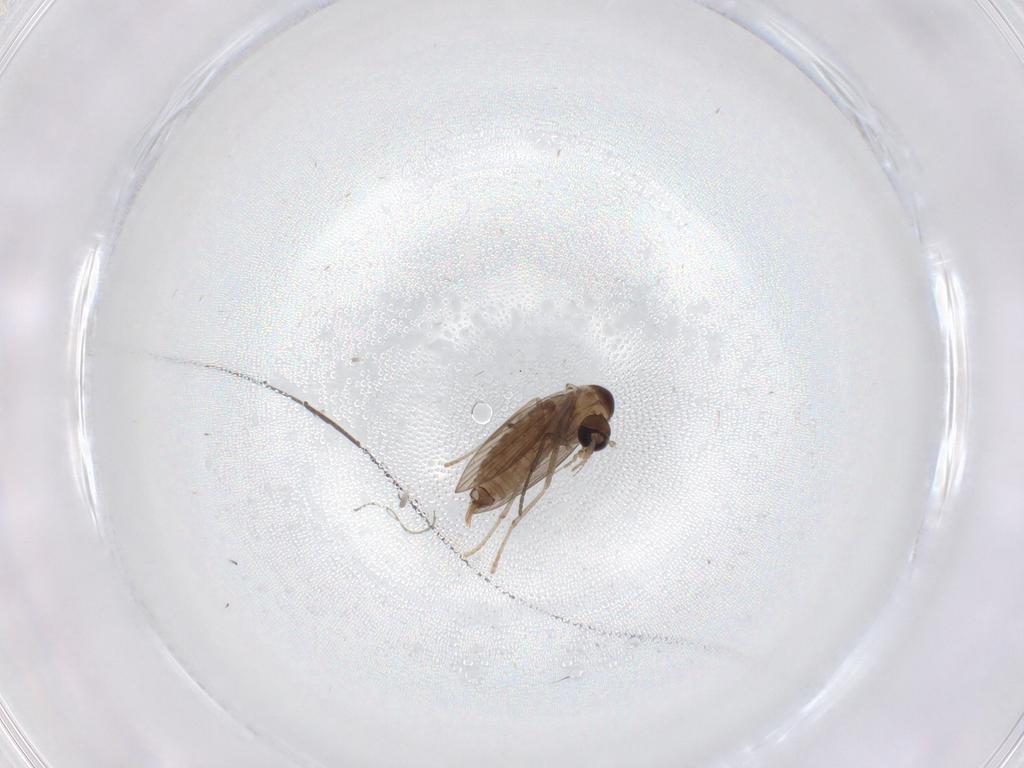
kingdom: Animalia
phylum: Arthropoda
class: Insecta
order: Diptera
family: Psychodidae
